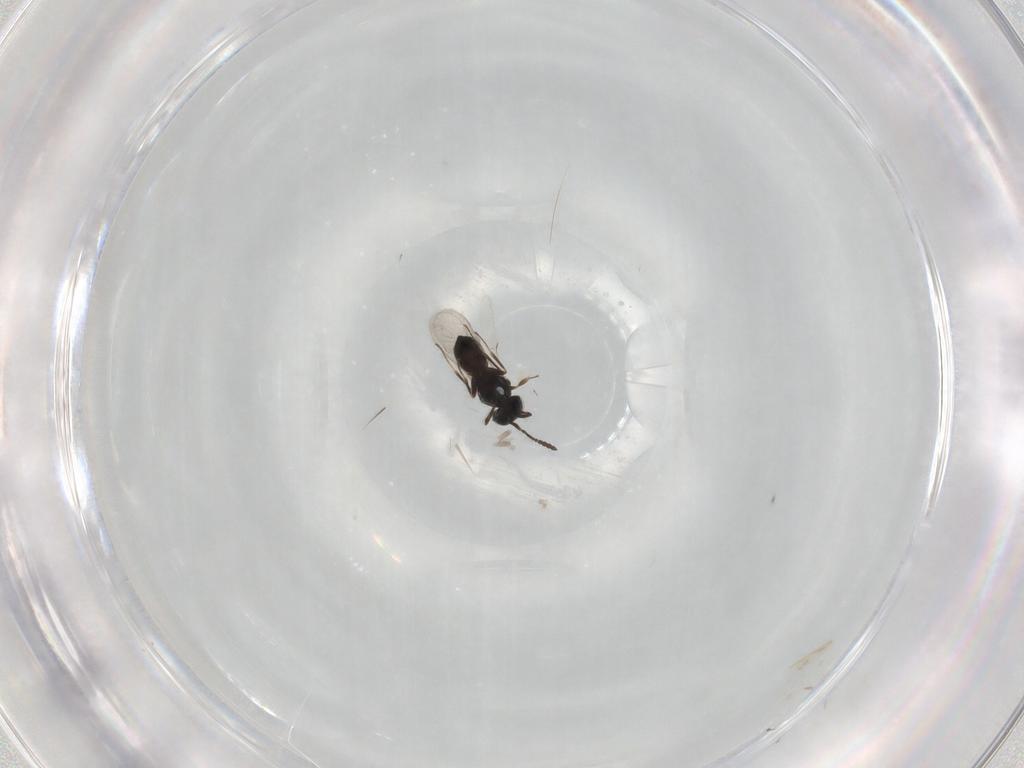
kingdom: Animalia
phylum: Arthropoda
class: Insecta
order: Hymenoptera
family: Scelionidae
